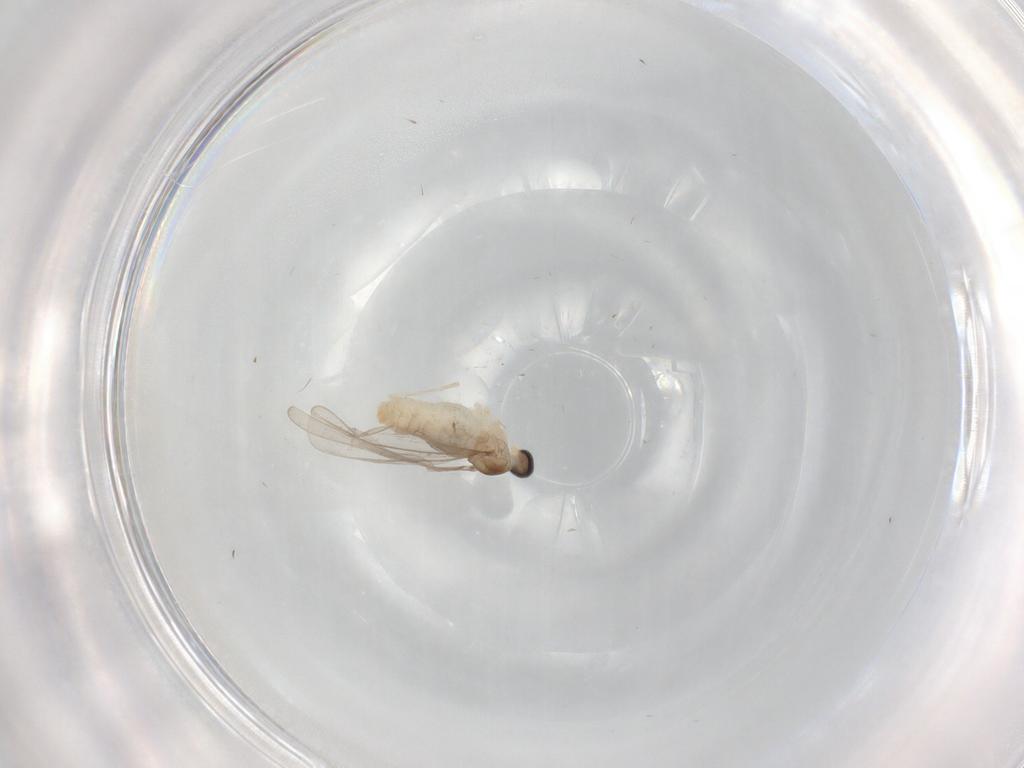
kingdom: Animalia
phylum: Arthropoda
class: Insecta
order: Diptera
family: Cecidomyiidae
